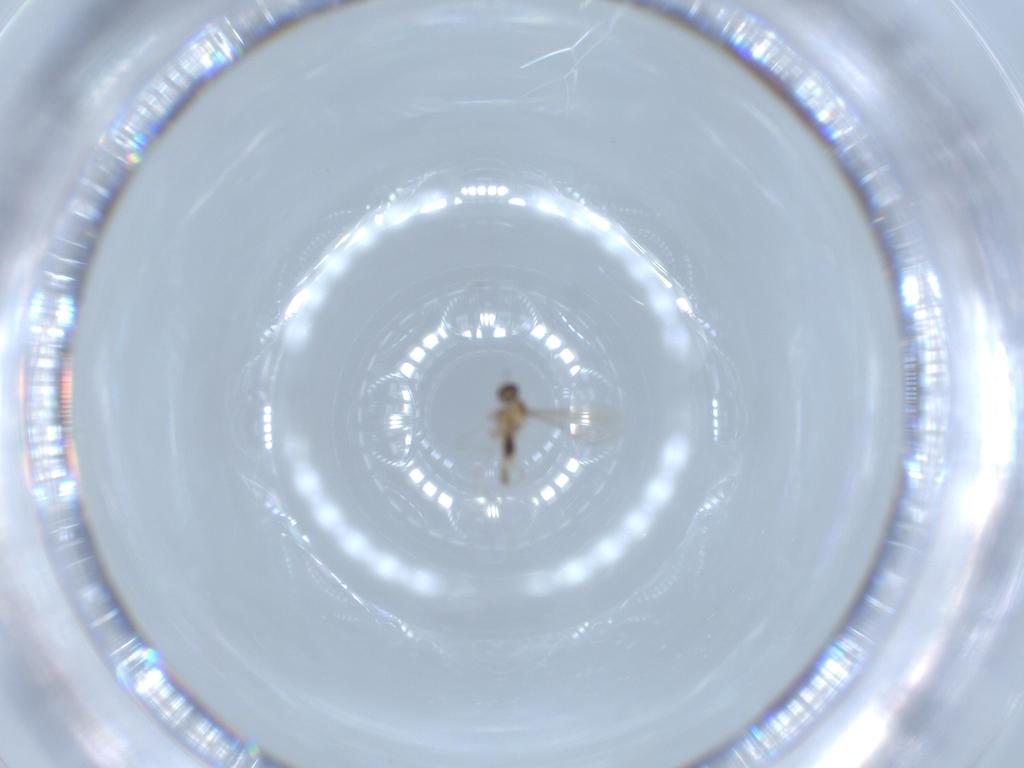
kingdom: Animalia
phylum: Arthropoda
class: Insecta
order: Diptera
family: Cecidomyiidae
